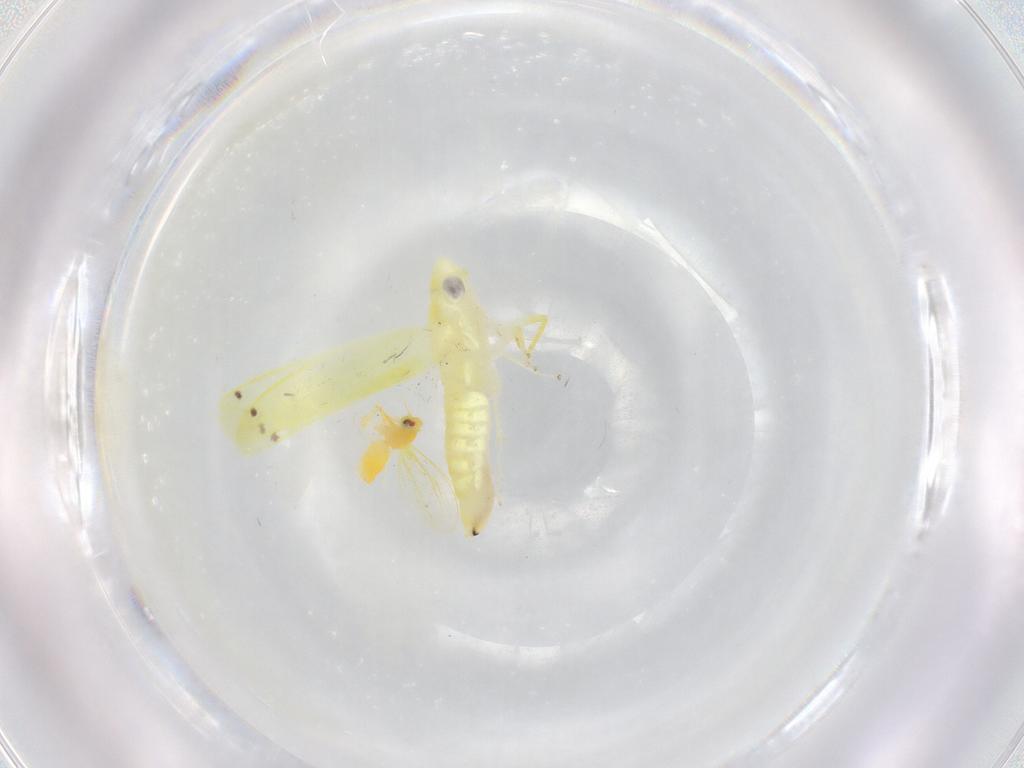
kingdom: Animalia
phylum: Arthropoda
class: Insecta
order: Hemiptera
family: Cicadellidae
